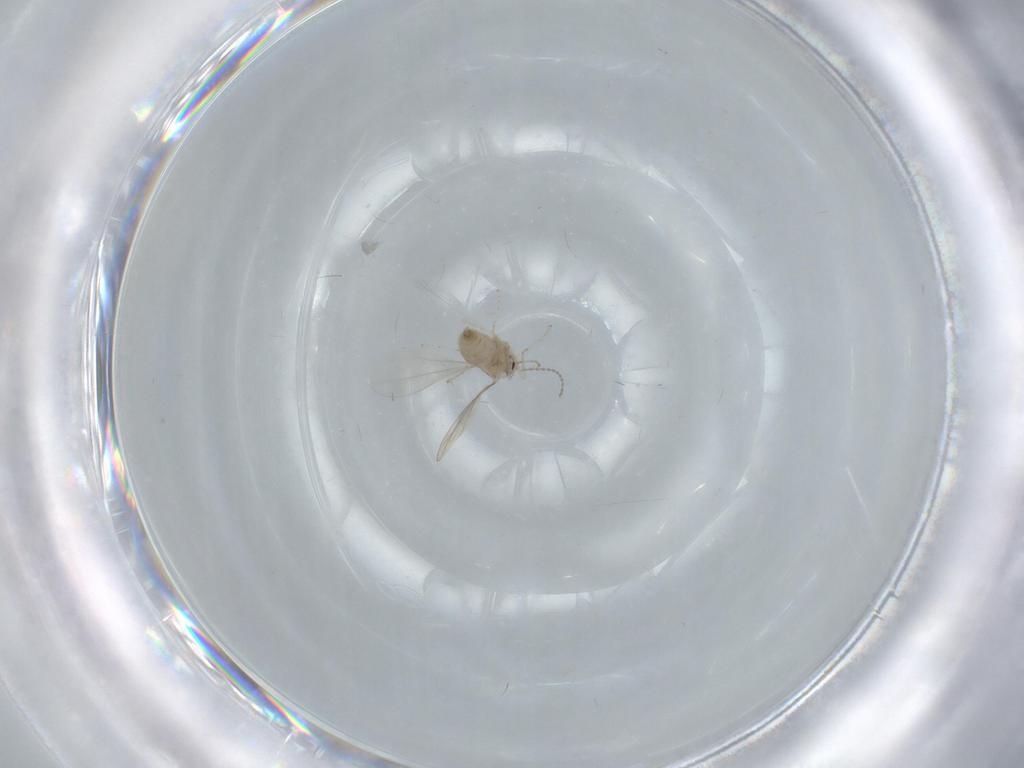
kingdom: Animalia
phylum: Arthropoda
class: Insecta
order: Diptera
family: Cecidomyiidae
